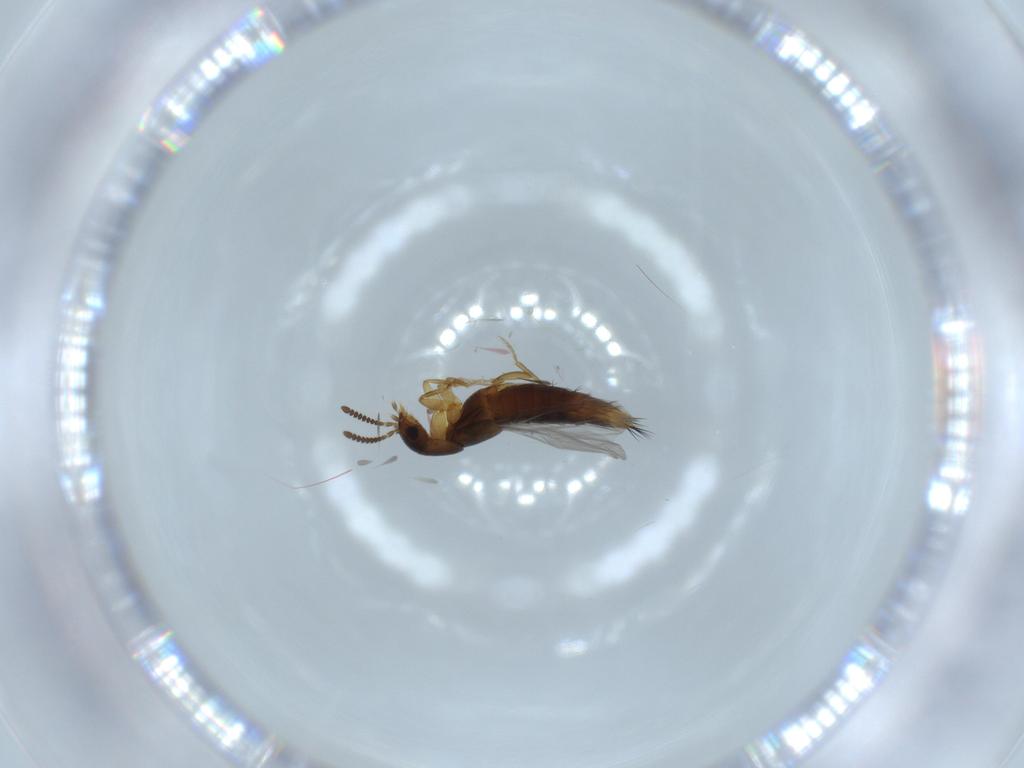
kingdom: Animalia
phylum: Arthropoda
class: Insecta
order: Coleoptera
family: Staphylinidae
